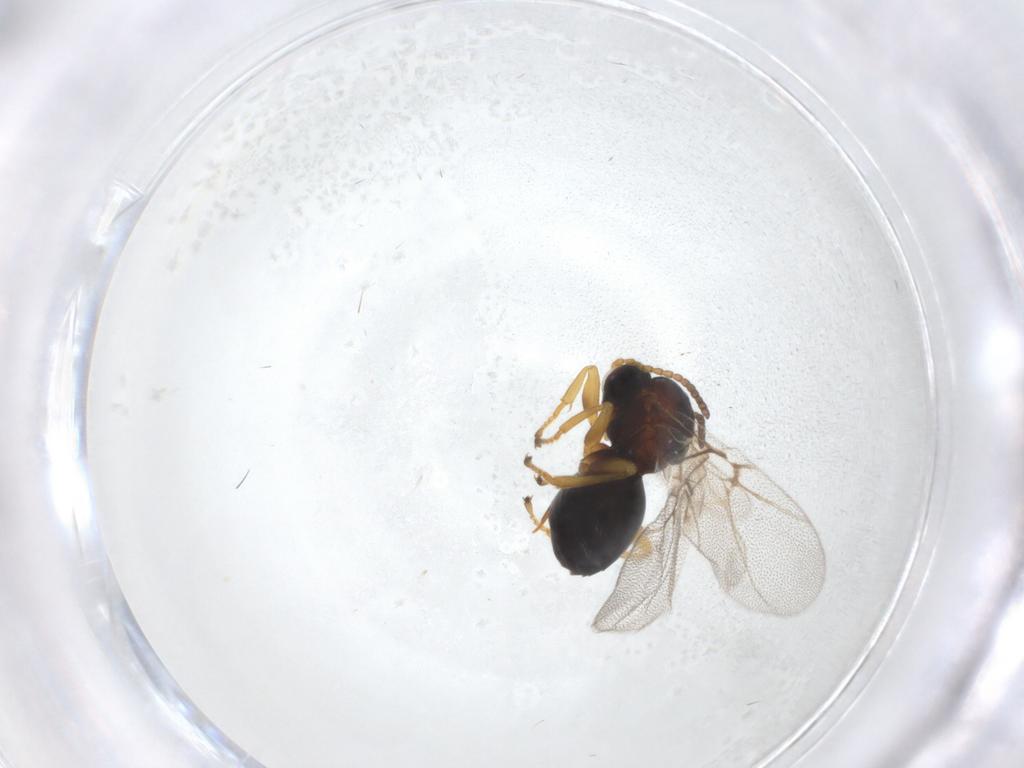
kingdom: Animalia
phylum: Arthropoda
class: Insecta
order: Hymenoptera
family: Cynipidae
